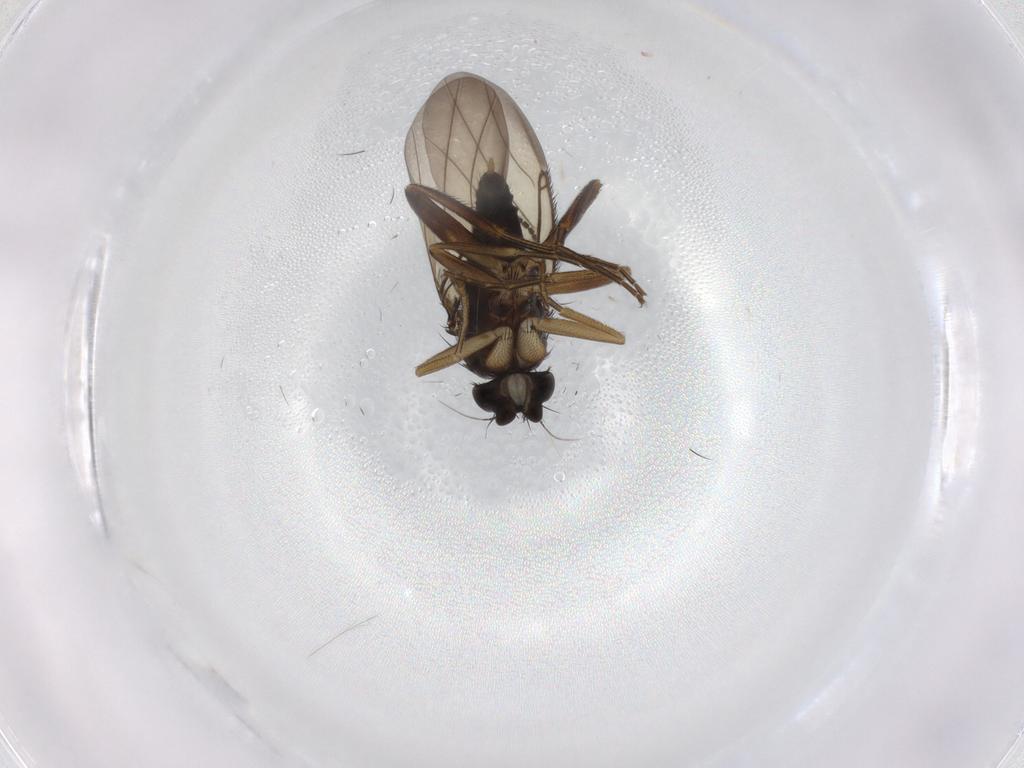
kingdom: Animalia
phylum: Arthropoda
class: Insecta
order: Diptera
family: Phoridae
